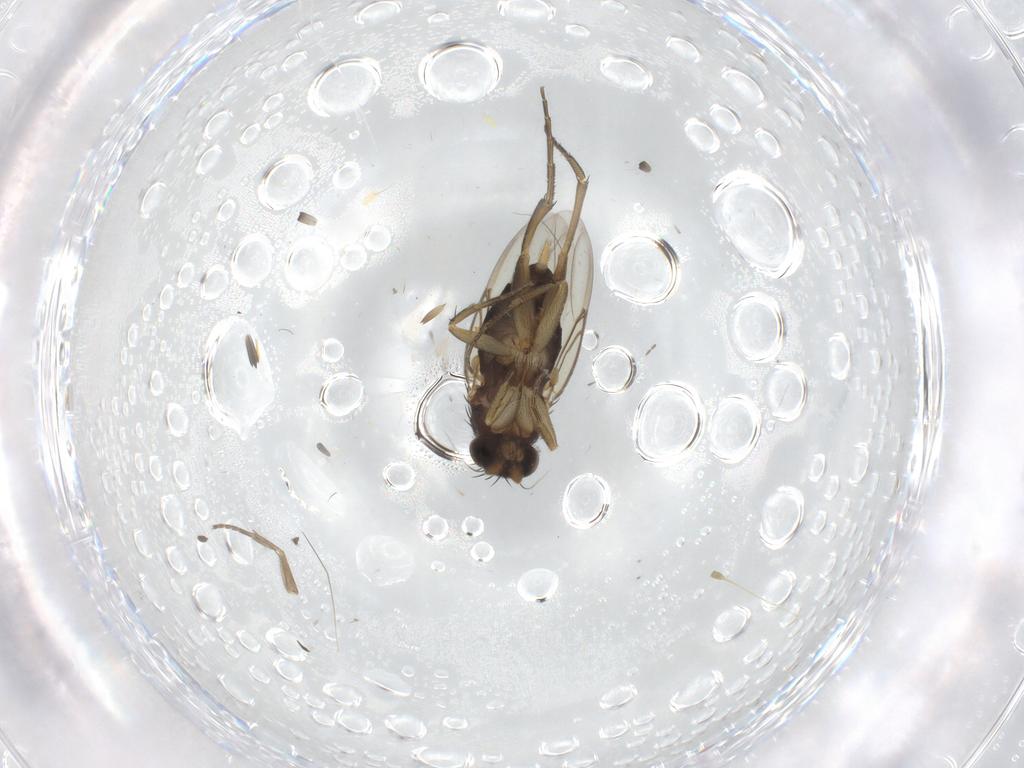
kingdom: Animalia
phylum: Arthropoda
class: Insecta
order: Diptera
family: Phoridae
